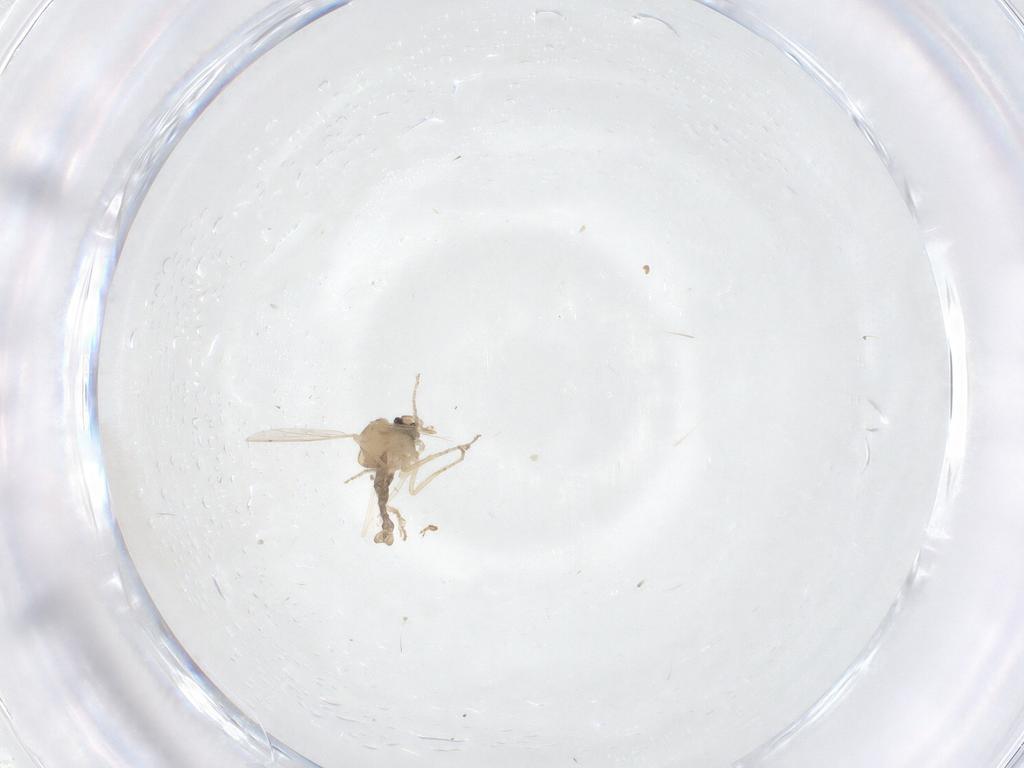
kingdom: Animalia
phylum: Arthropoda
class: Insecta
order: Diptera
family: Ceratopogonidae
